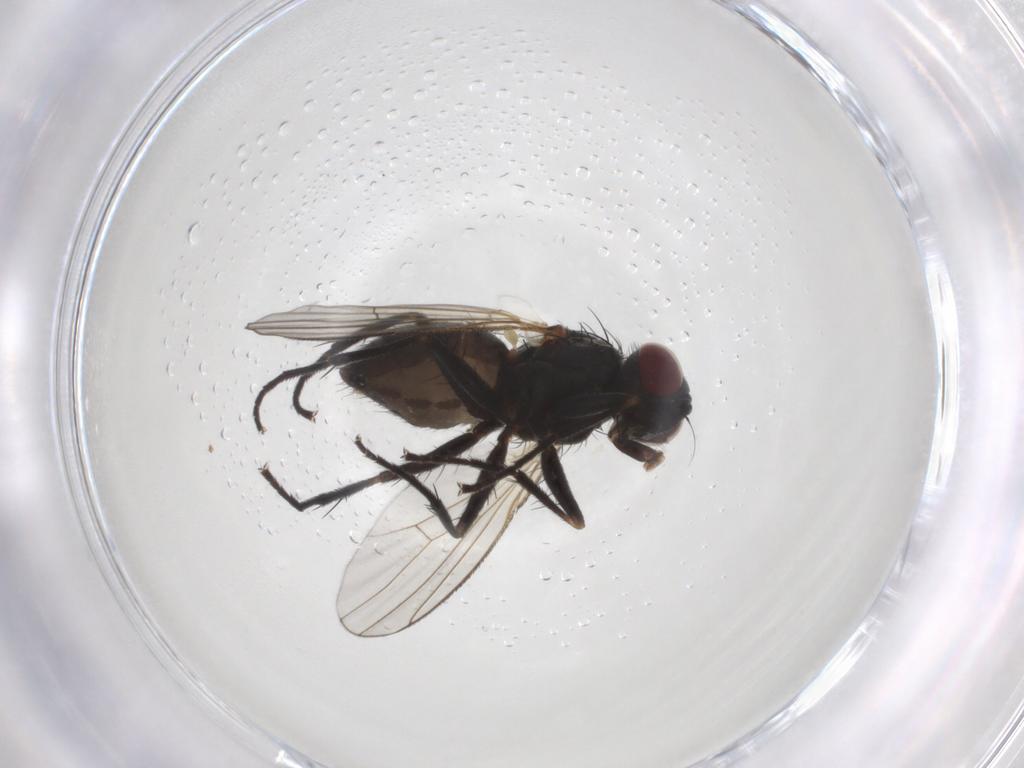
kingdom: Animalia
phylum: Arthropoda
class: Insecta
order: Diptera
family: Muscidae
